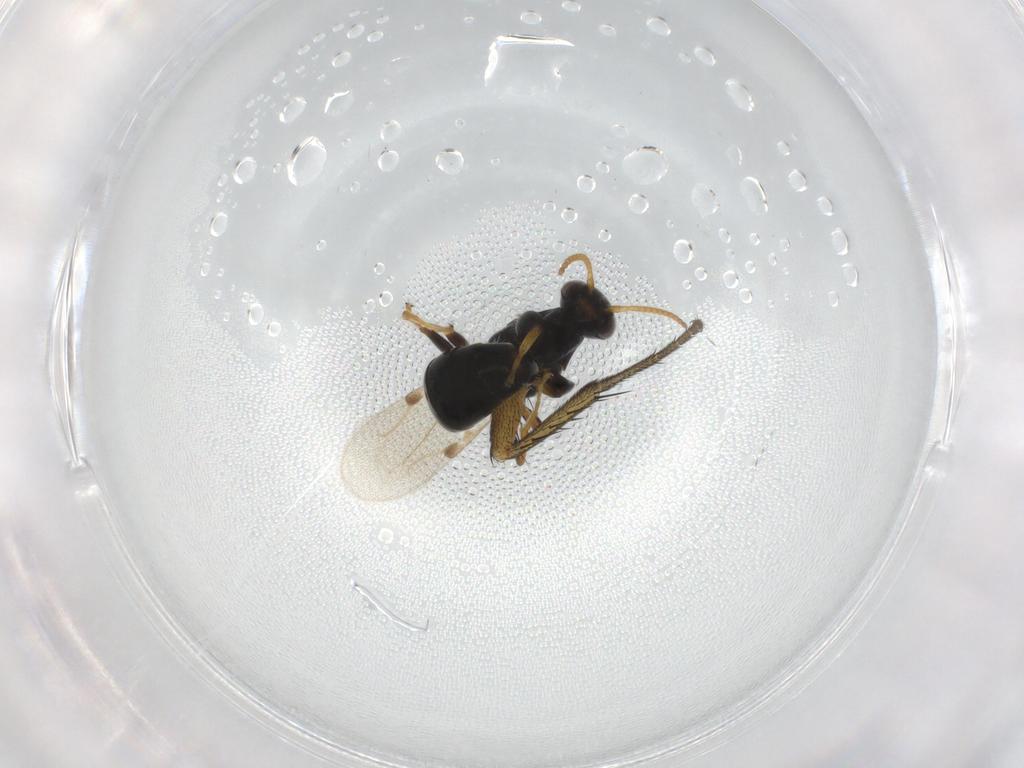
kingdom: Animalia
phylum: Arthropoda
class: Insecta
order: Hymenoptera
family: Bethylidae
